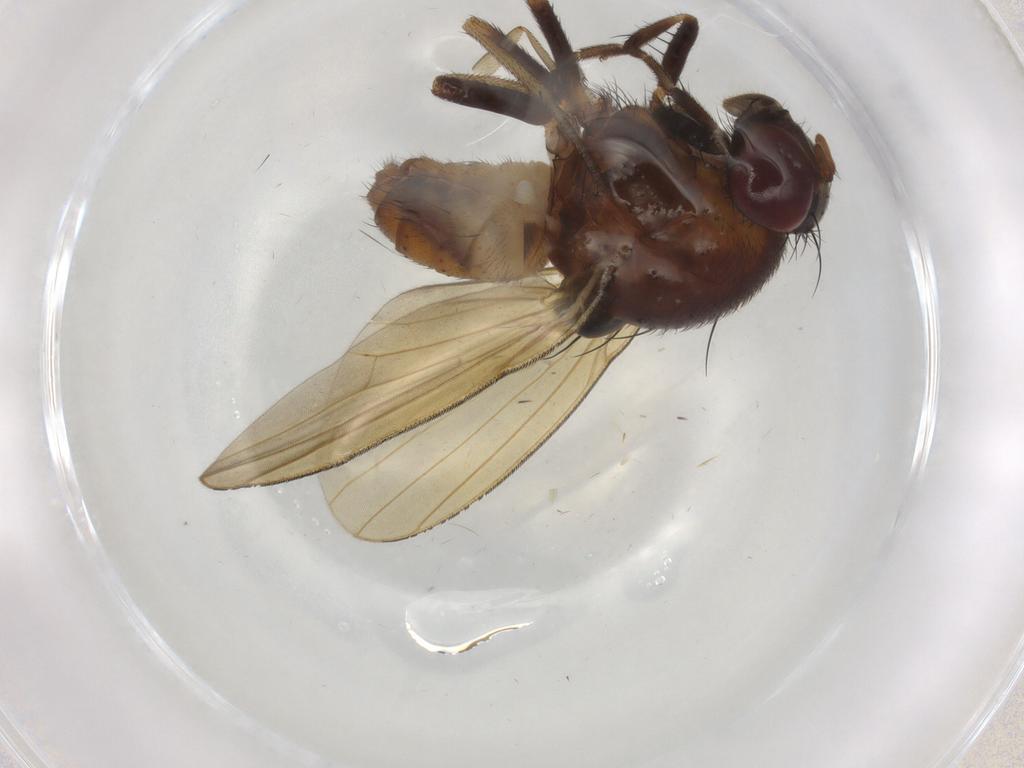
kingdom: Animalia
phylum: Arthropoda
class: Insecta
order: Diptera
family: Phoridae
